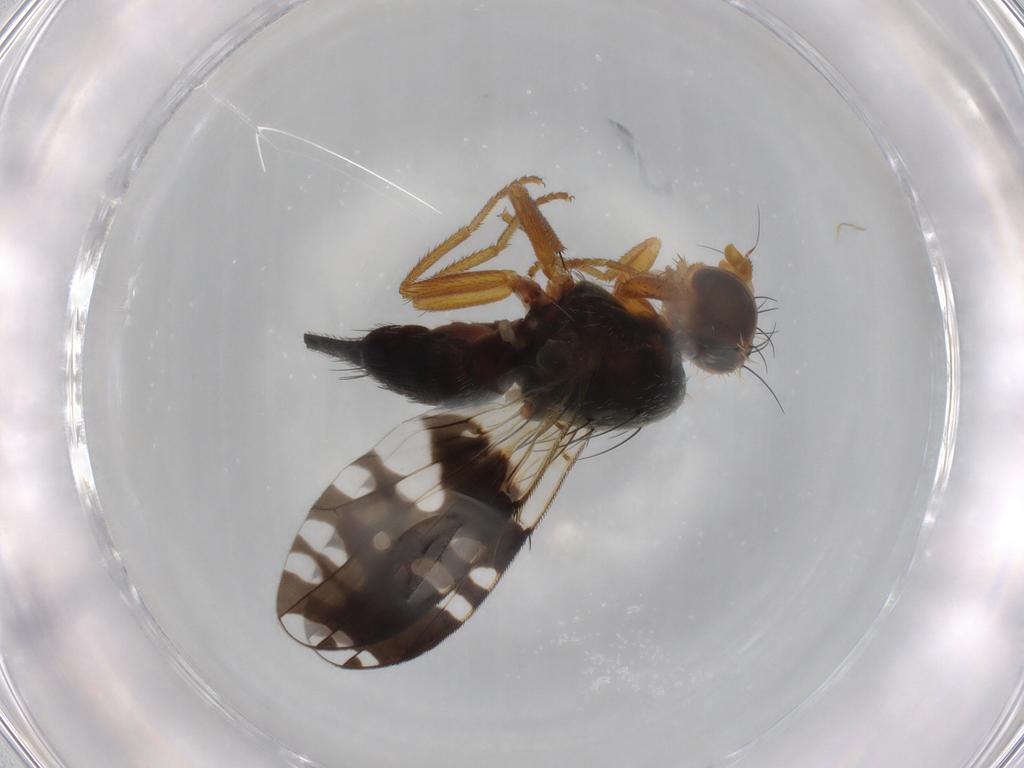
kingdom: Animalia
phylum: Arthropoda
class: Insecta
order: Diptera
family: Tephritidae
